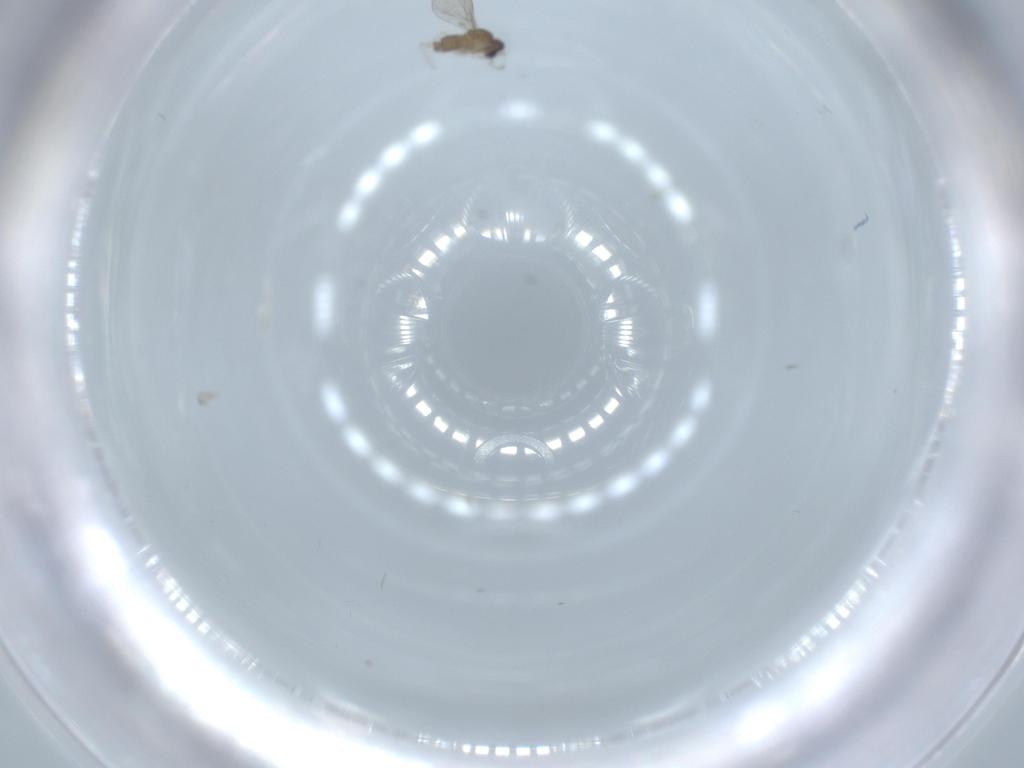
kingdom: Animalia
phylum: Arthropoda
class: Insecta
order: Diptera
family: Cecidomyiidae
